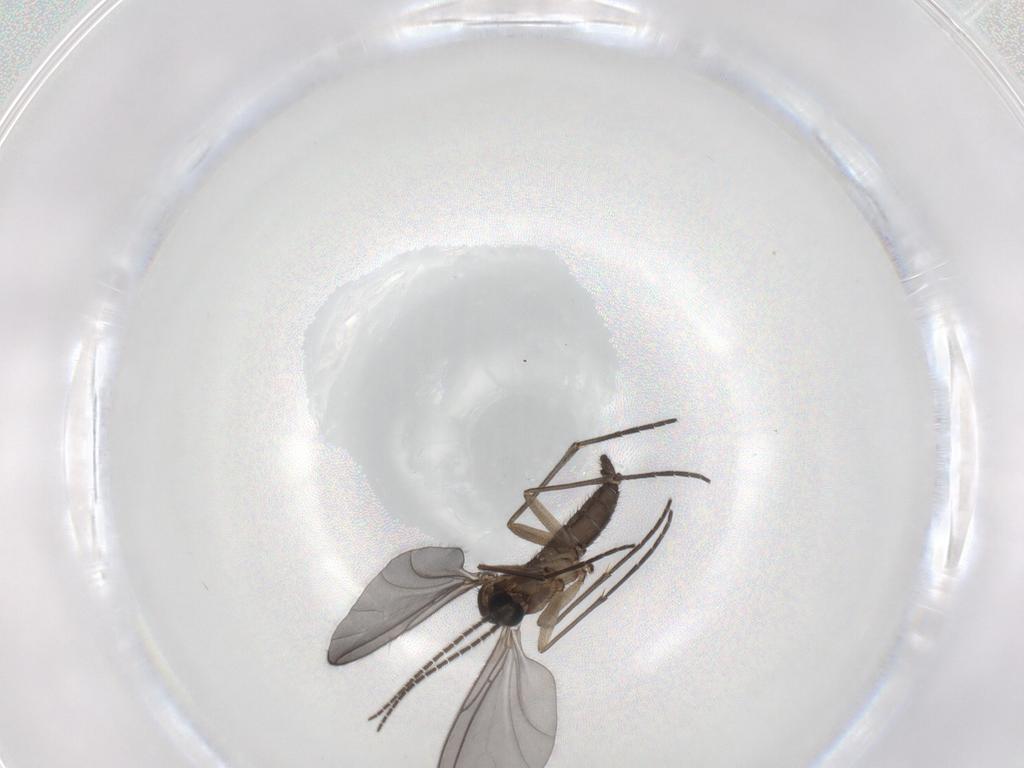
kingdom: Animalia
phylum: Arthropoda
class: Insecta
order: Diptera
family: Sciaridae
